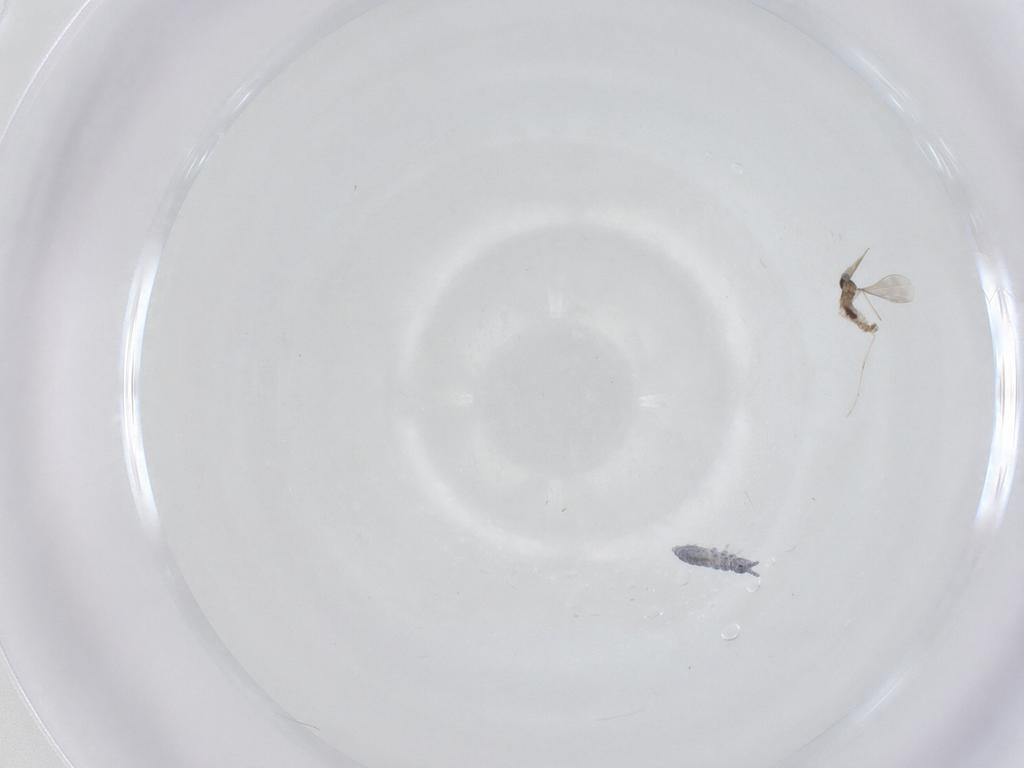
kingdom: Animalia
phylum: Arthropoda
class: Collembola
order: Poduromorpha
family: Hypogastruridae
